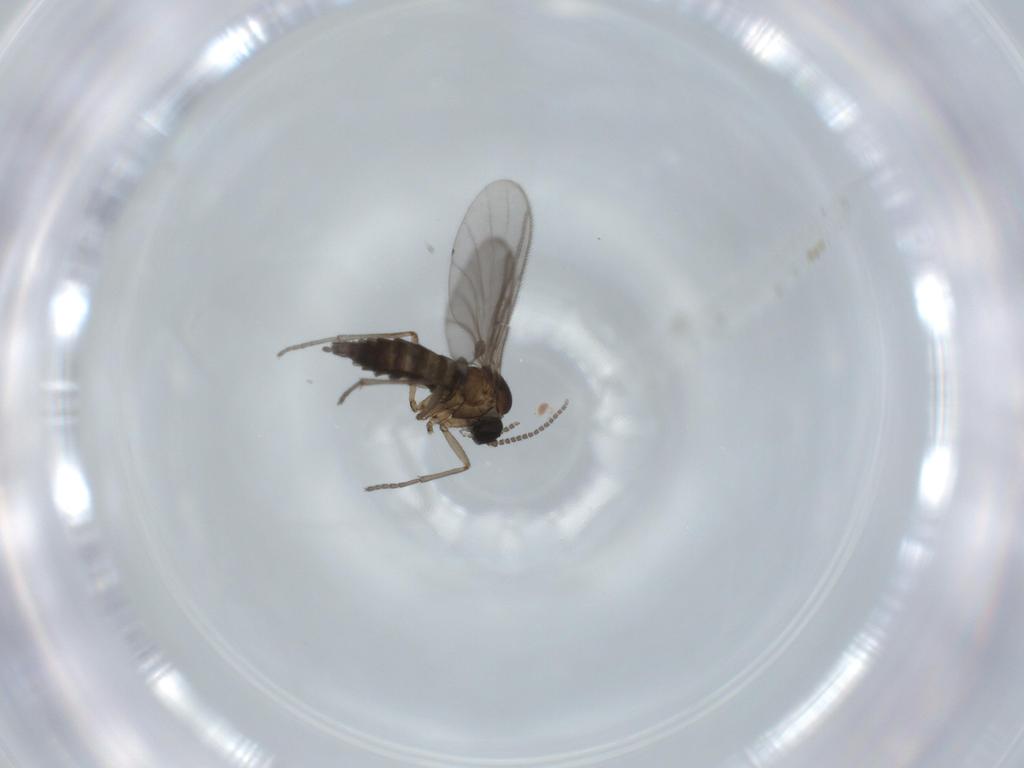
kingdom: Animalia
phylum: Arthropoda
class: Insecta
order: Diptera
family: Sciaridae
